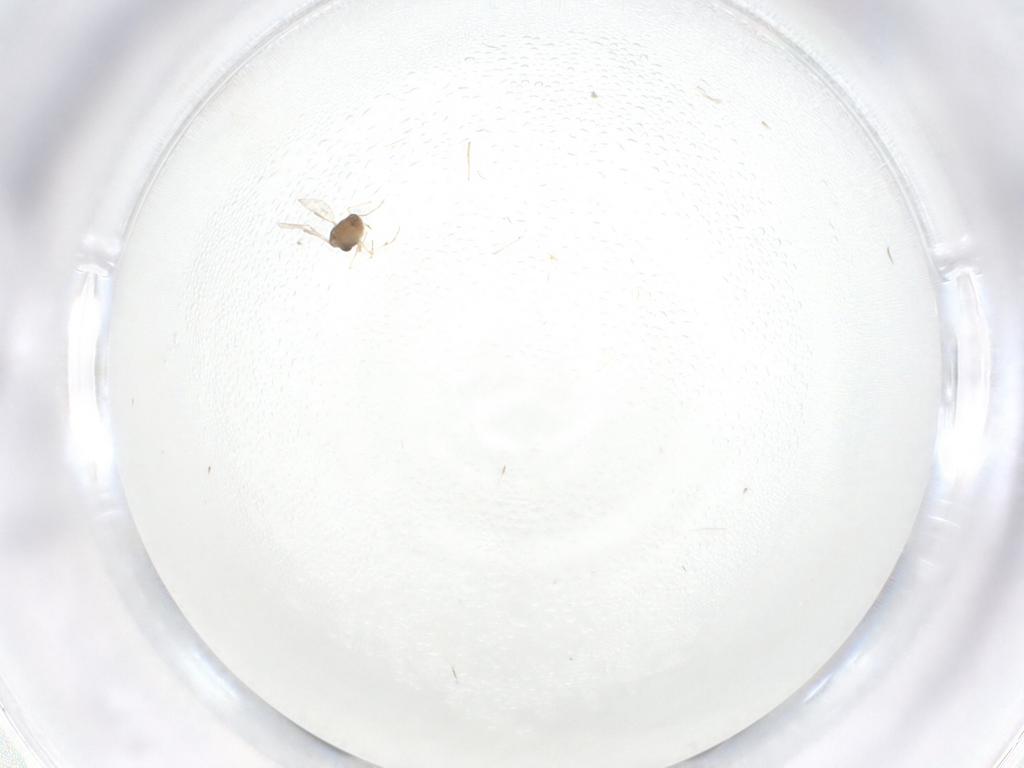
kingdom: Animalia
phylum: Arthropoda
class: Insecta
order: Diptera
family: Chironomidae
